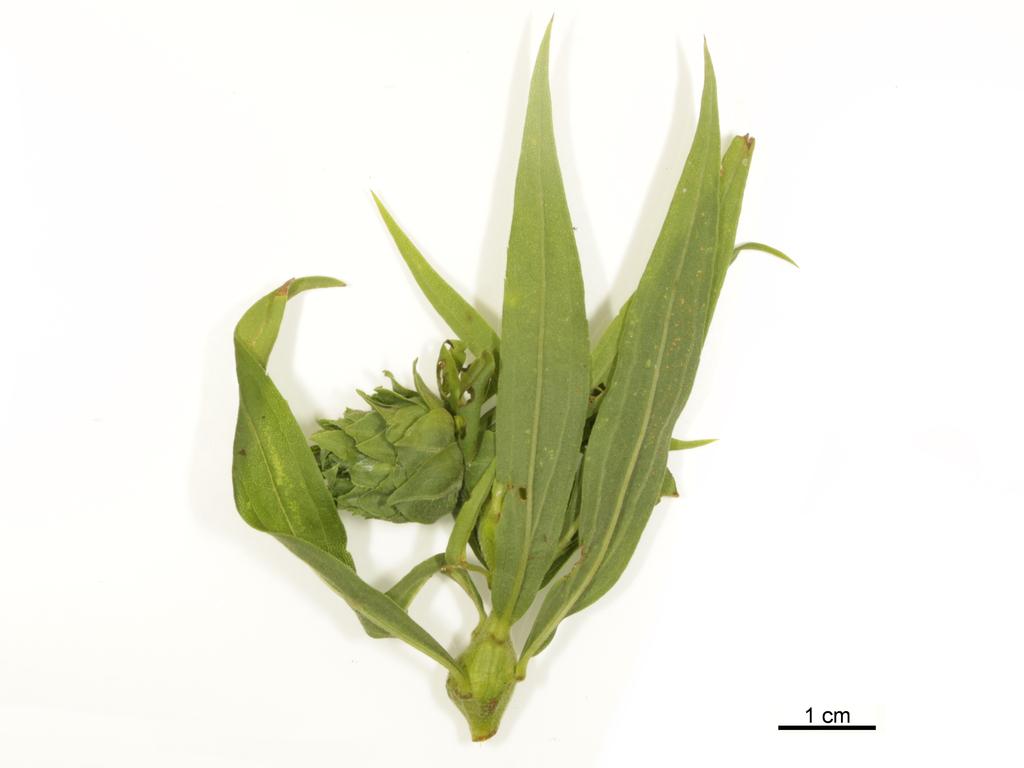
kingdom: Animalia
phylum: Arthropoda
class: Insecta
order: Hymenoptera
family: Torymidae
